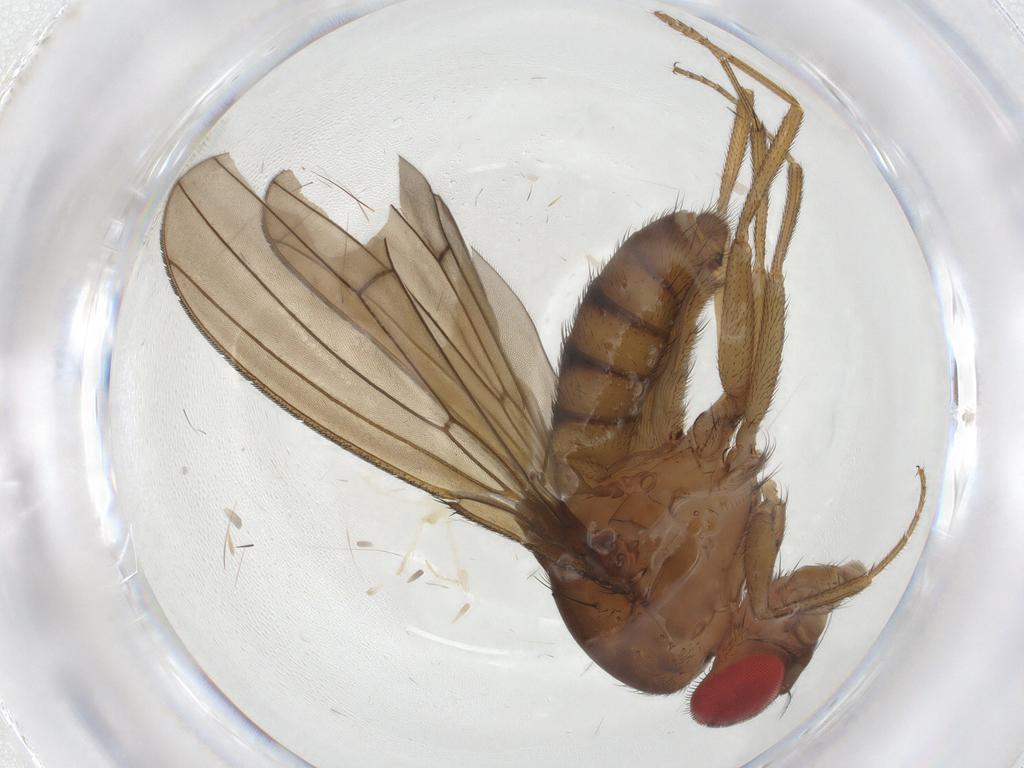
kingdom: Animalia
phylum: Arthropoda
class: Insecta
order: Diptera
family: Drosophilidae
